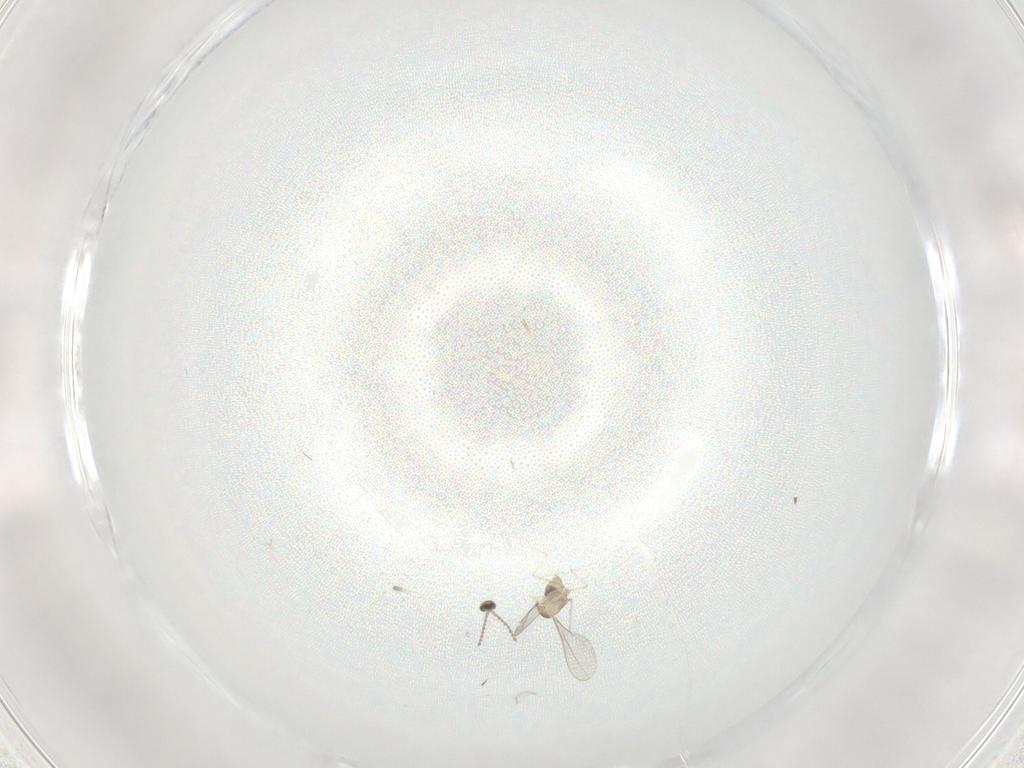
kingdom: Animalia
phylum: Arthropoda
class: Insecta
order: Diptera
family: Cecidomyiidae
